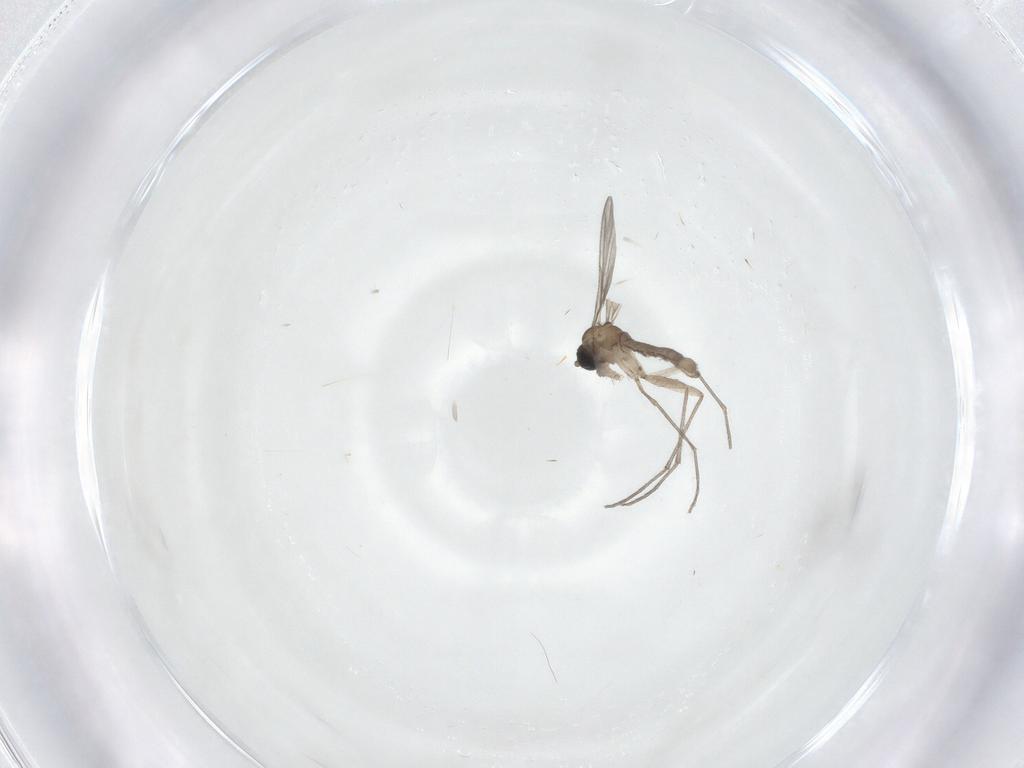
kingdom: Animalia
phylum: Arthropoda
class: Insecta
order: Diptera
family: Sciaridae
